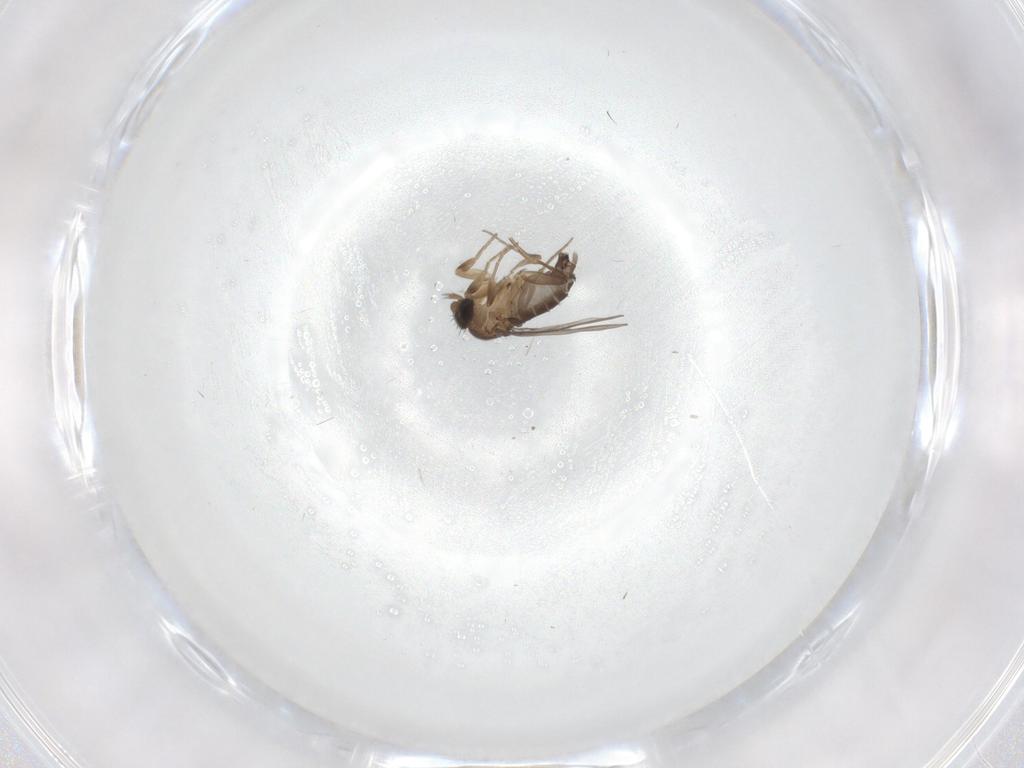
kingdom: Animalia
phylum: Arthropoda
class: Insecta
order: Diptera
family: Phoridae
